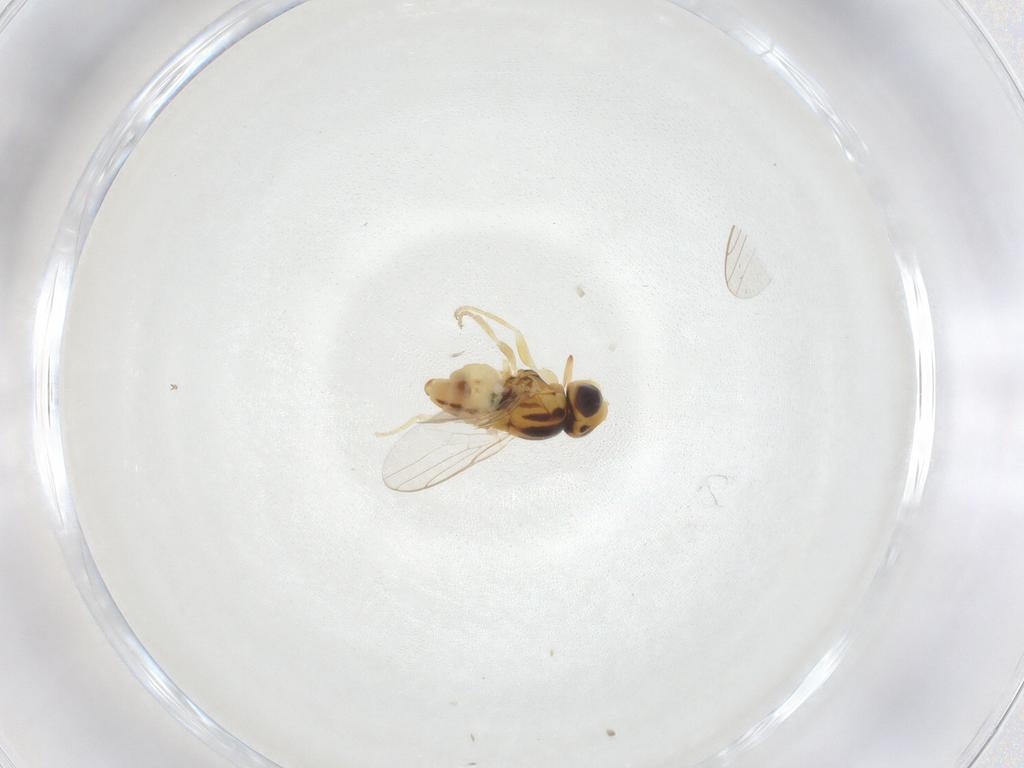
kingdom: Animalia
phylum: Arthropoda
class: Insecta
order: Diptera
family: Chloropidae
